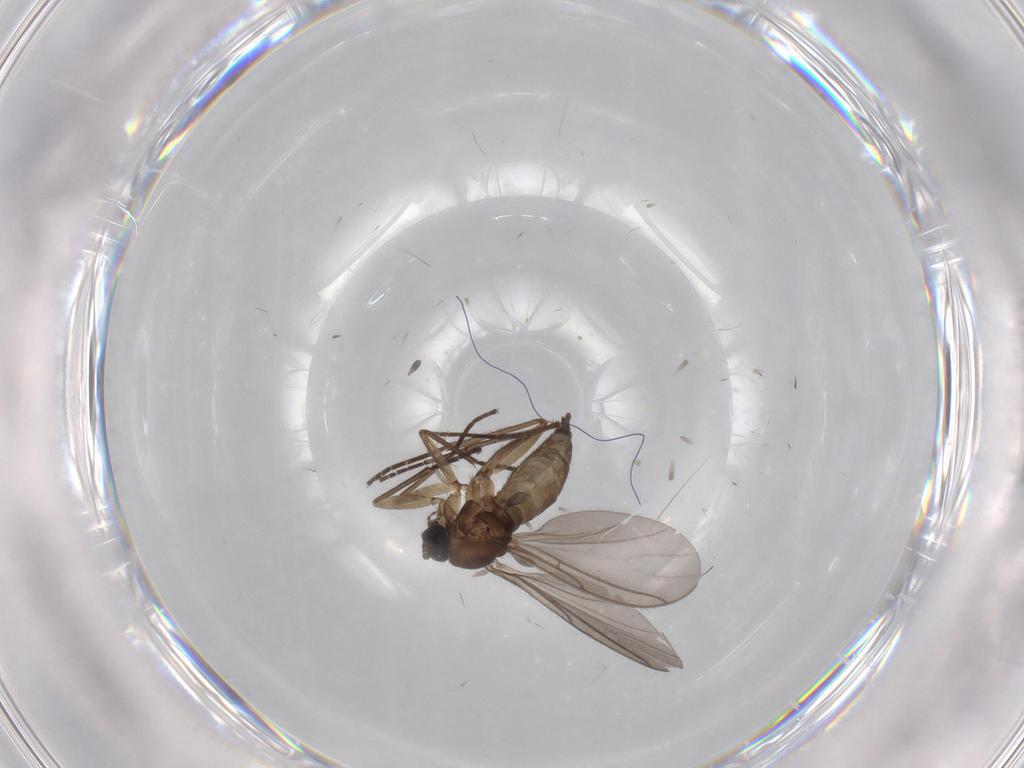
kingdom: Animalia
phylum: Arthropoda
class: Insecta
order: Diptera
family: Sciaridae
